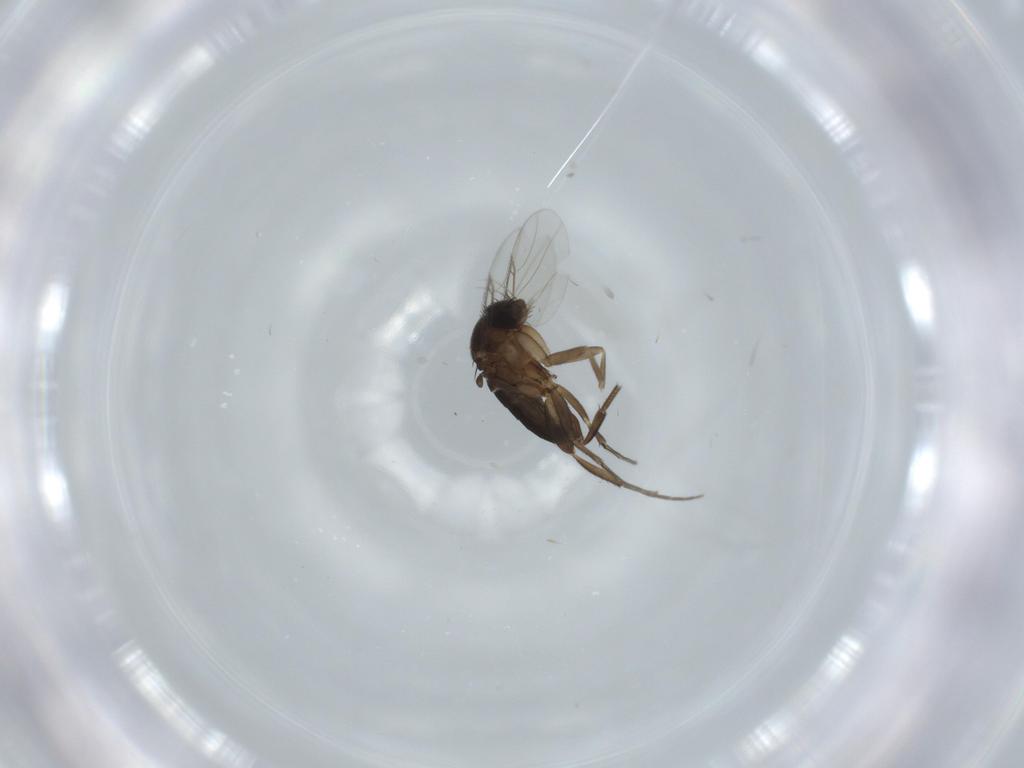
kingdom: Animalia
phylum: Arthropoda
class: Insecta
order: Diptera
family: Phoridae
